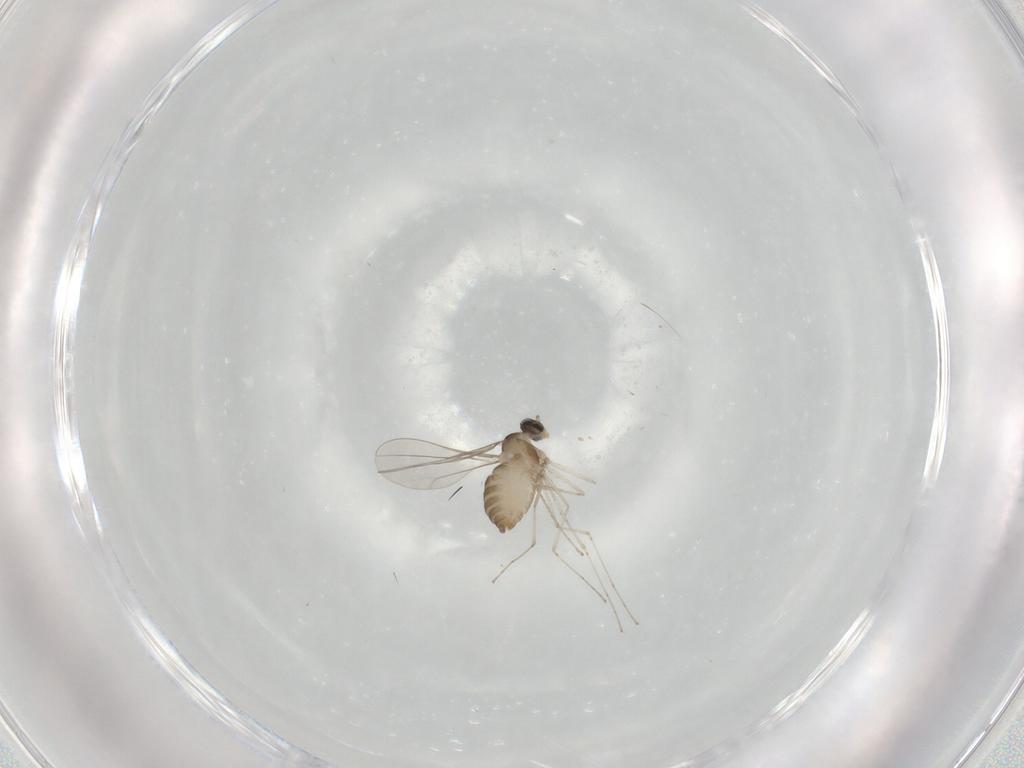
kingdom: Animalia
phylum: Arthropoda
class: Insecta
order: Diptera
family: Cecidomyiidae
